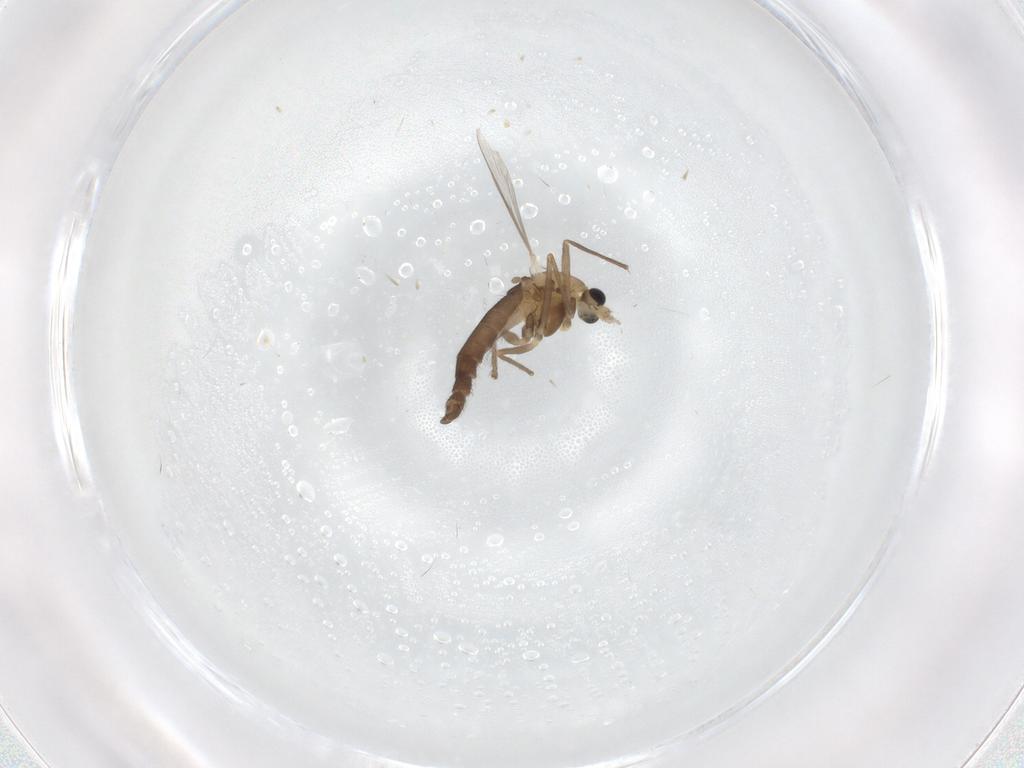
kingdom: Animalia
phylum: Arthropoda
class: Insecta
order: Diptera
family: Chironomidae
